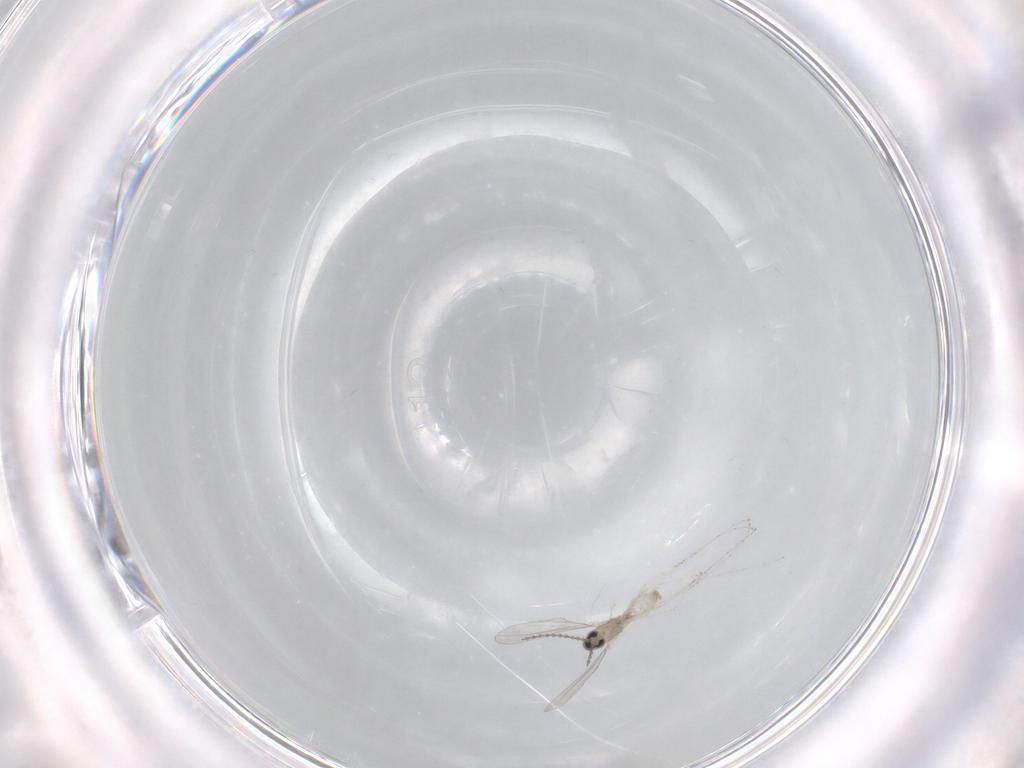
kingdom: Animalia
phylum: Arthropoda
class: Insecta
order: Diptera
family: Cecidomyiidae
